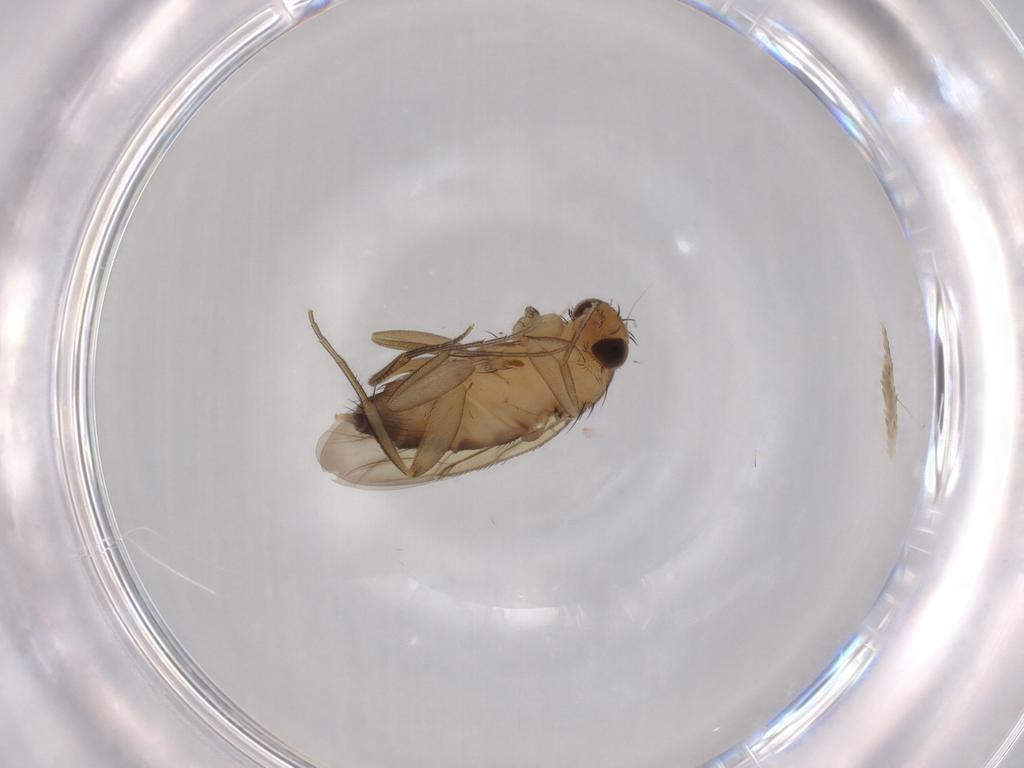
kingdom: Animalia
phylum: Arthropoda
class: Insecta
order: Diptera
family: Phoridae
